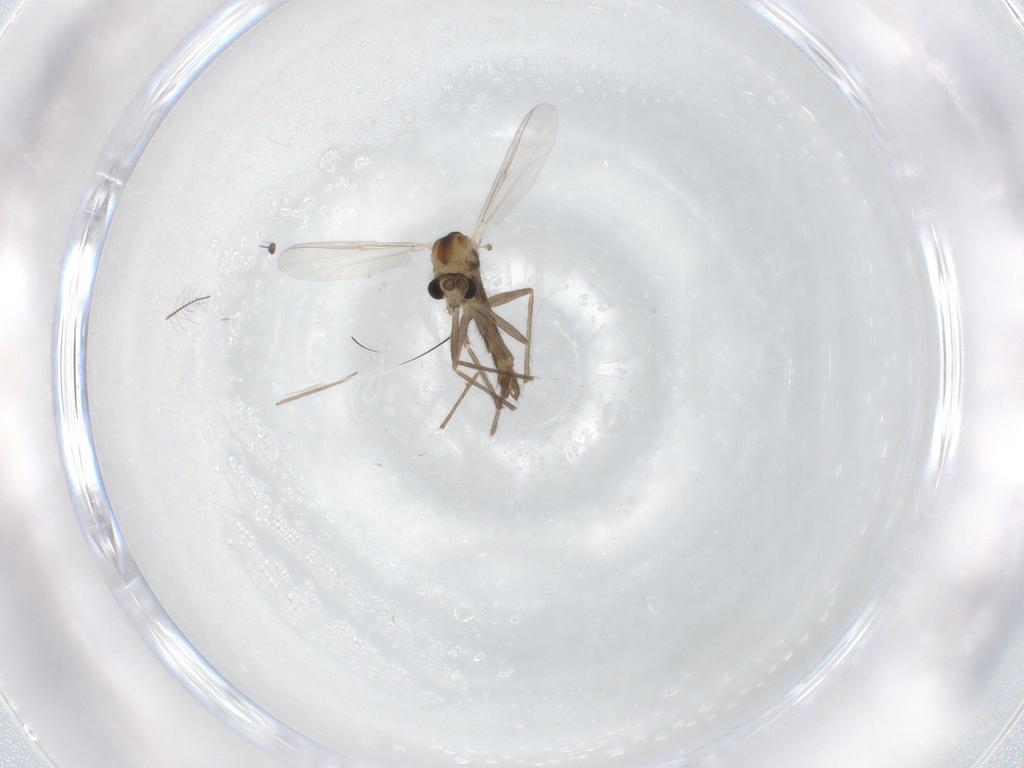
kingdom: Animalia
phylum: Arthropoda
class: Insecta
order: Diptera
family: Chironomidae
